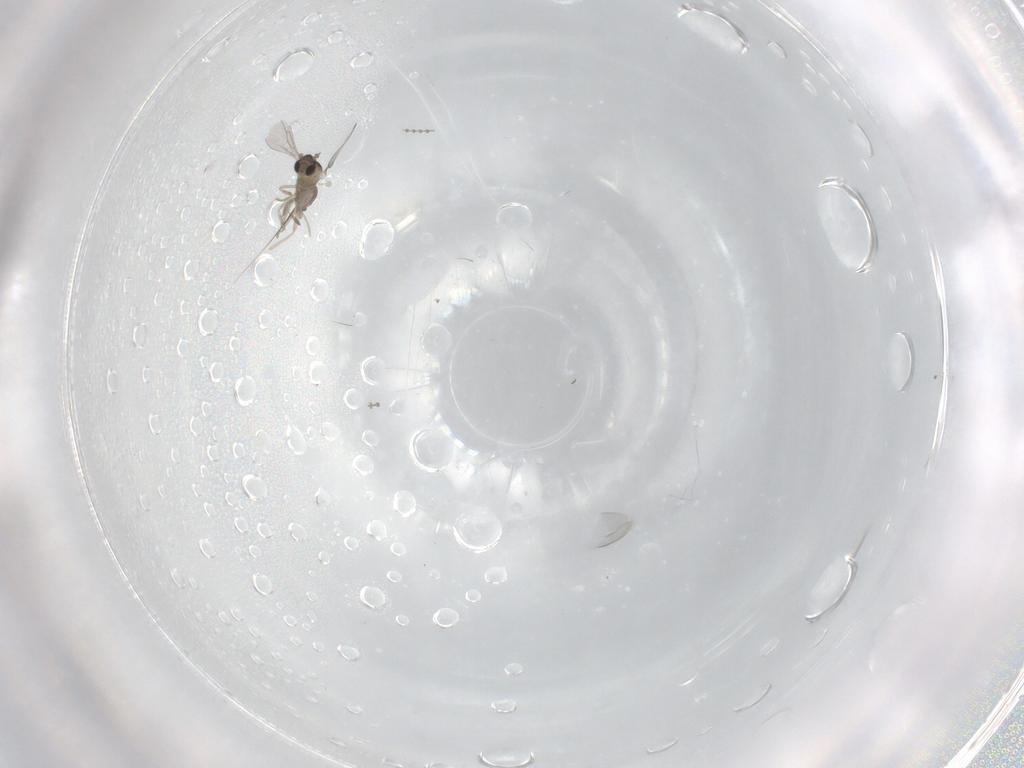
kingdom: Animalia
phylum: Arthropoda
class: Insecta
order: Diptera
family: Cecidomyiidae
